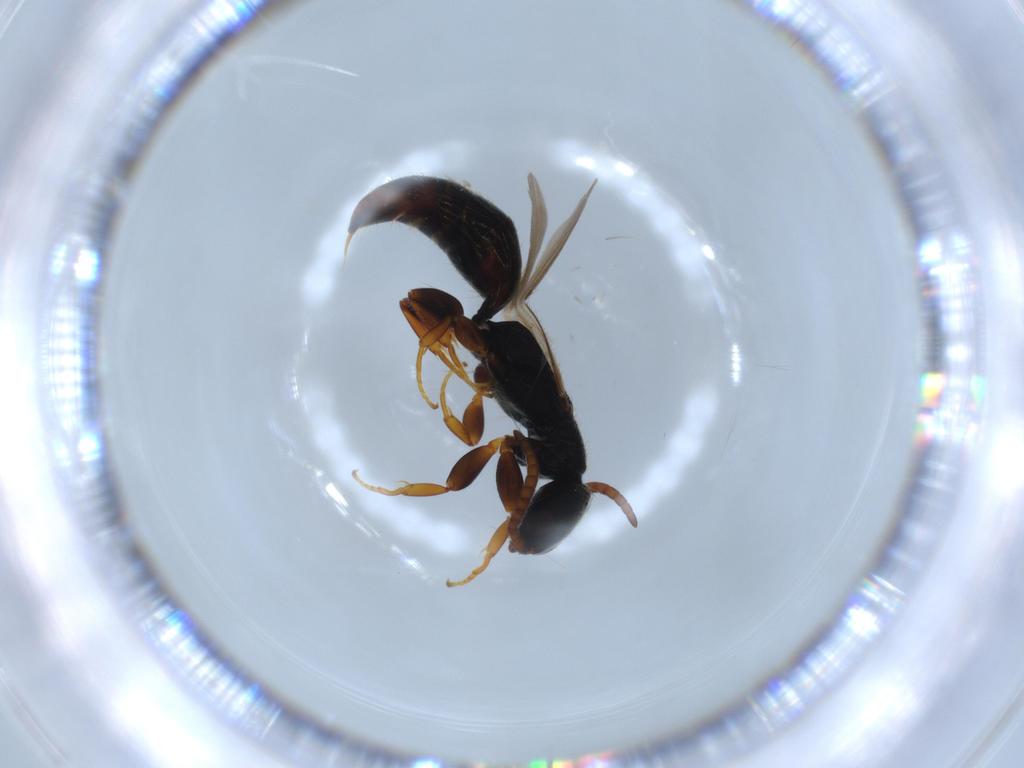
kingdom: Animalia
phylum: Arthropoda
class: Insecta
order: Hymenoptera
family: Bethylidae
